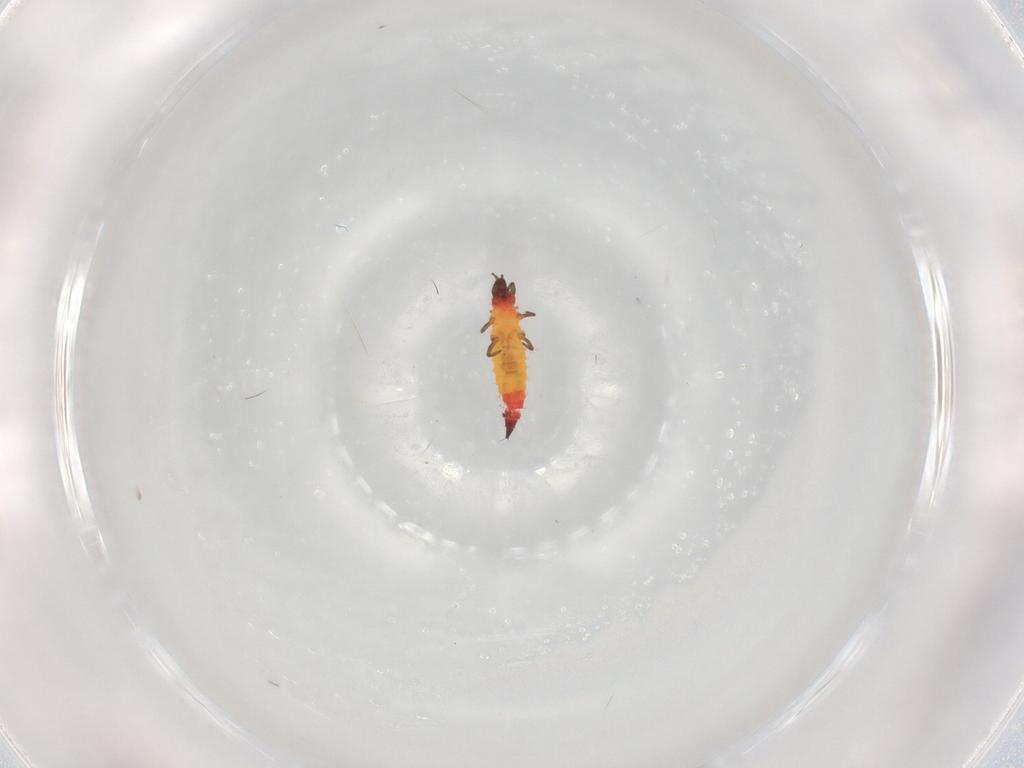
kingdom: Animalia
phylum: Arthropoda
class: Insecta
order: Thysanoptera
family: Phlaeothripidae
